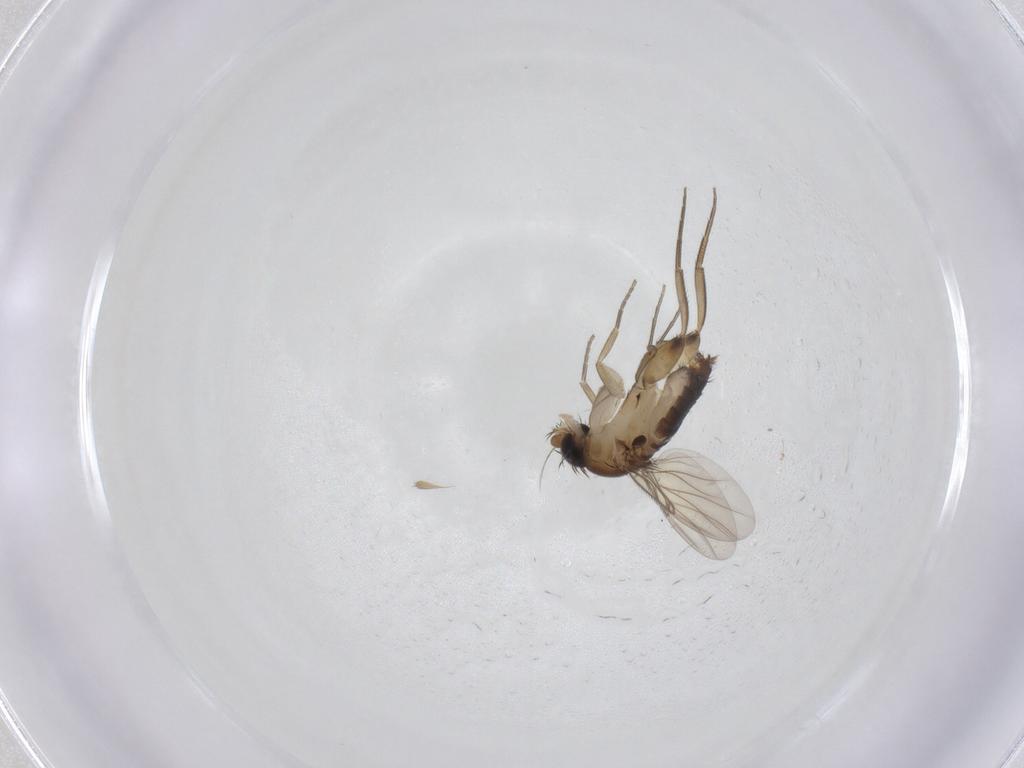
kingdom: Animalia
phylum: Arthropoda
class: Insecta
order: Diptera
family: Phoridae
